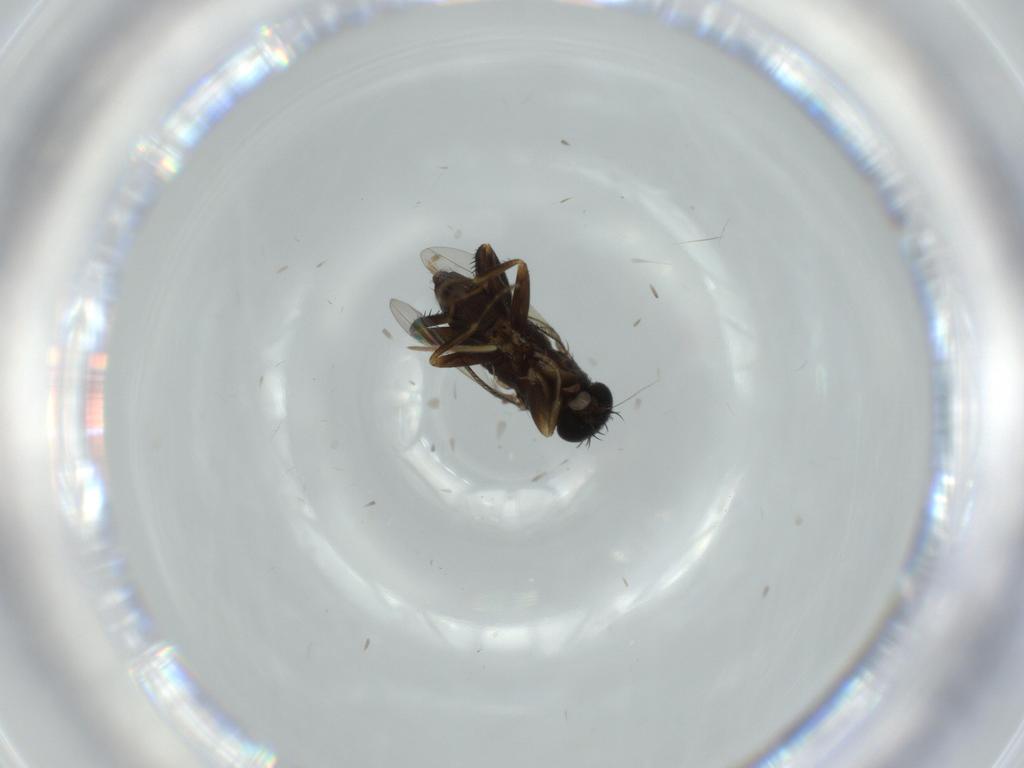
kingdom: Animalia
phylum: Arthropoda
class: Insecta
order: Diptera
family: Phoridae
